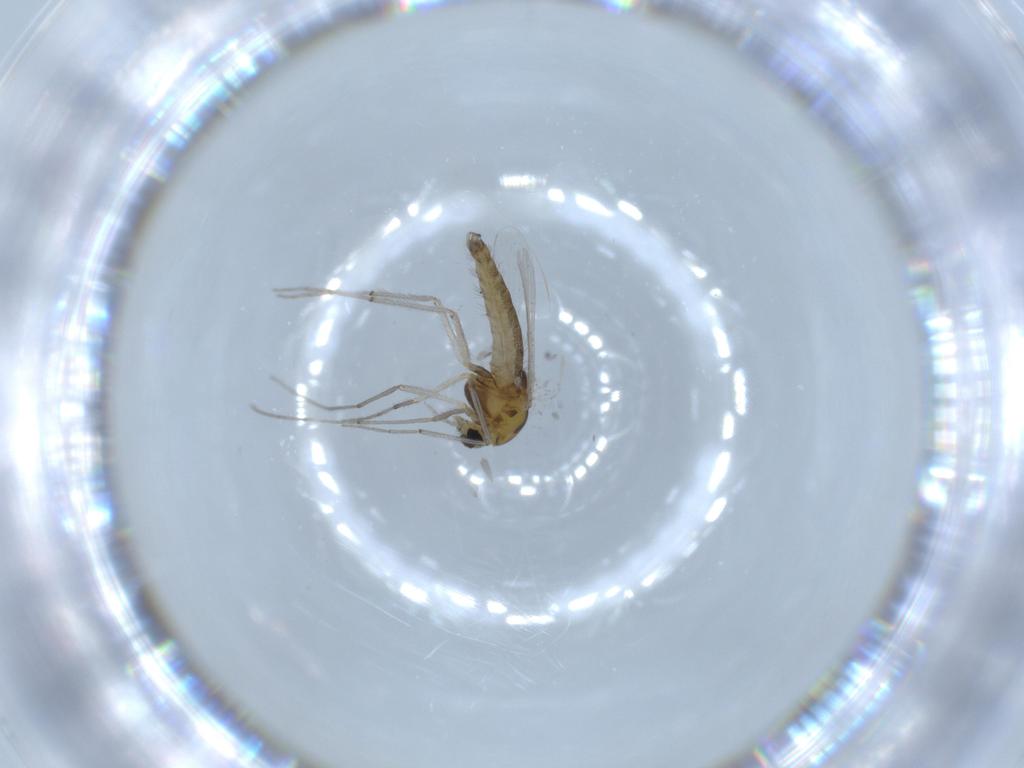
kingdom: Animalia
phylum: Arthropoda
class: Insecta
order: Diptera
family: Chironomidae
